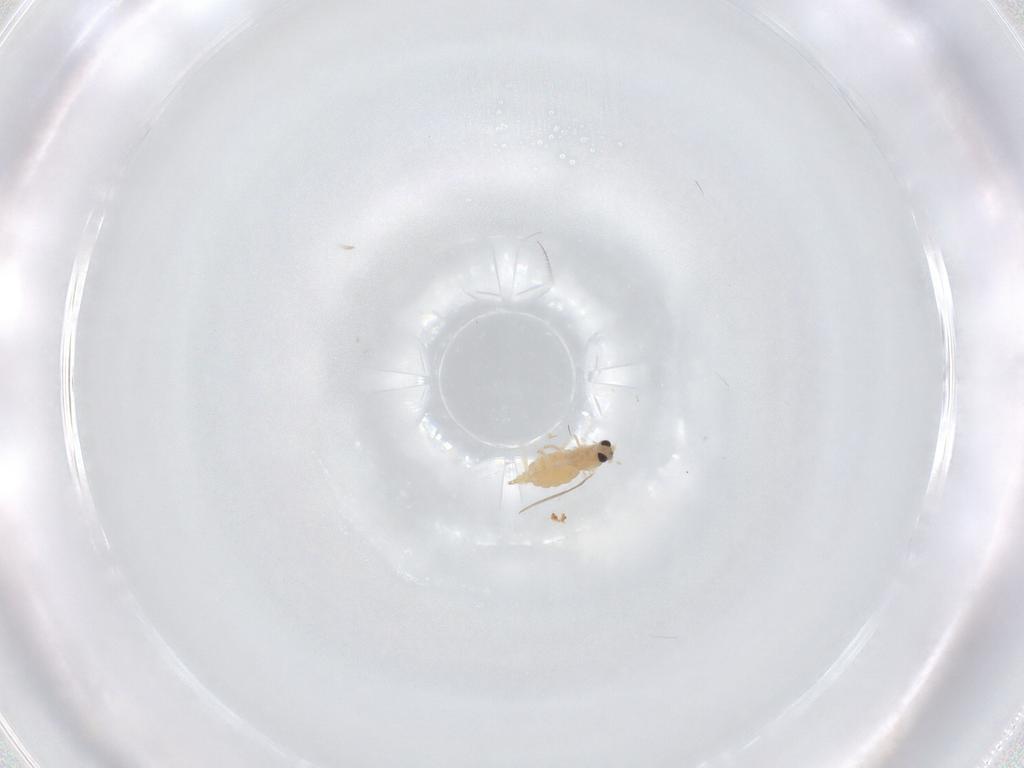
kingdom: Animalia
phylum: Arthropoda
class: Insecta
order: Diptera
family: Cecidomyiidae
